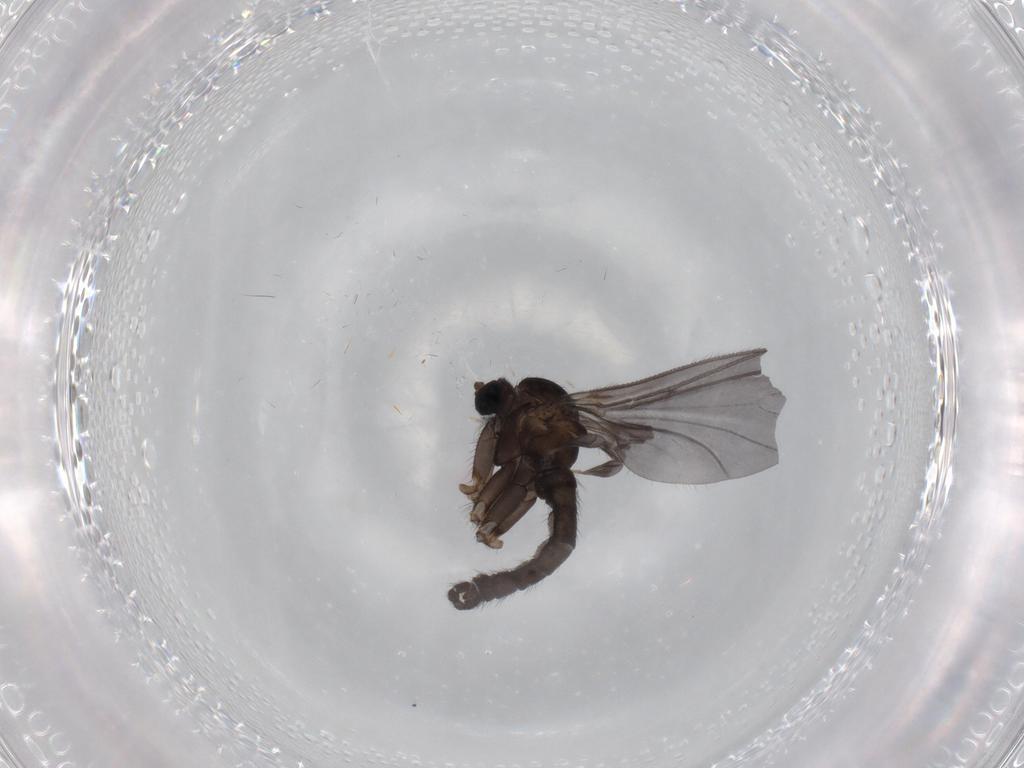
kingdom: Animalia
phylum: Arthropoda
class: Insecta
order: Diptera
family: Sciaridae
